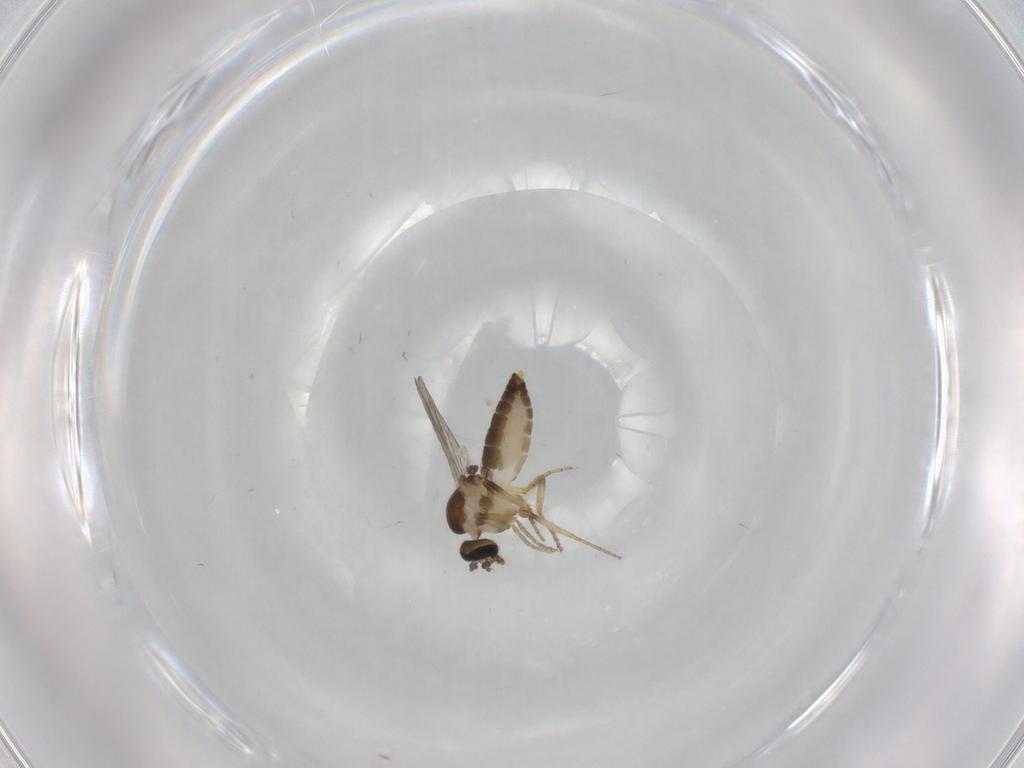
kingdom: Animalia
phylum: Arthropoda
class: Insecta
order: Diptera
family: Ceratopogonidae
